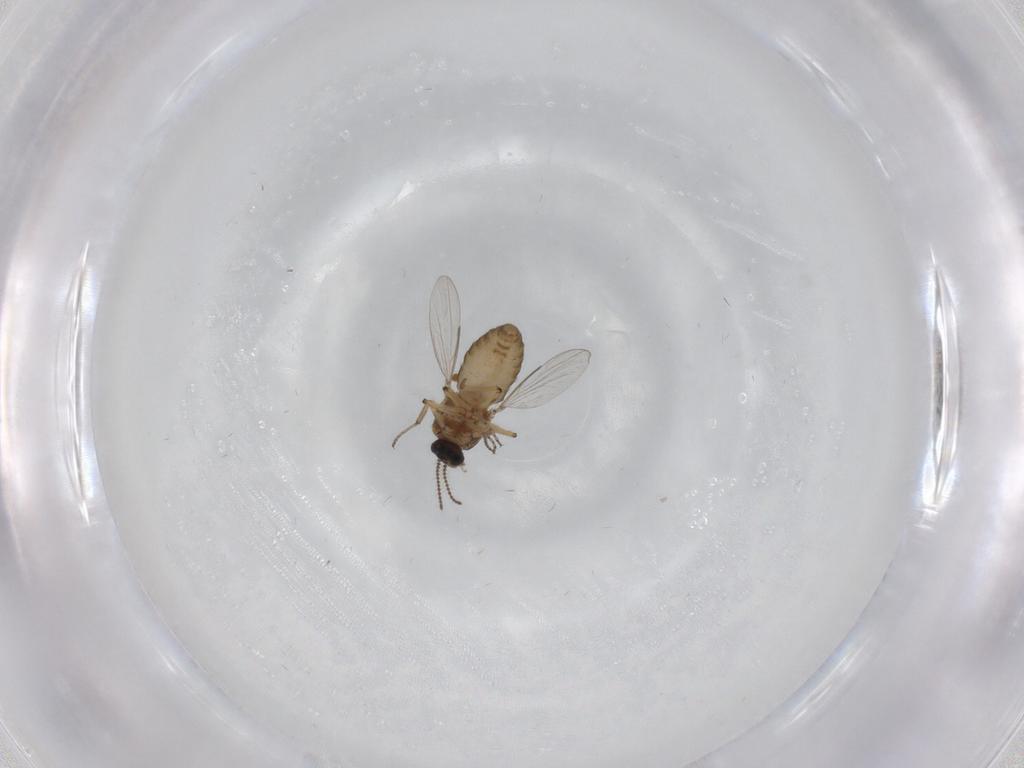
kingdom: Animalia
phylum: Arthropoda
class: Insecta
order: Diptera
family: Ceratopogonidae
